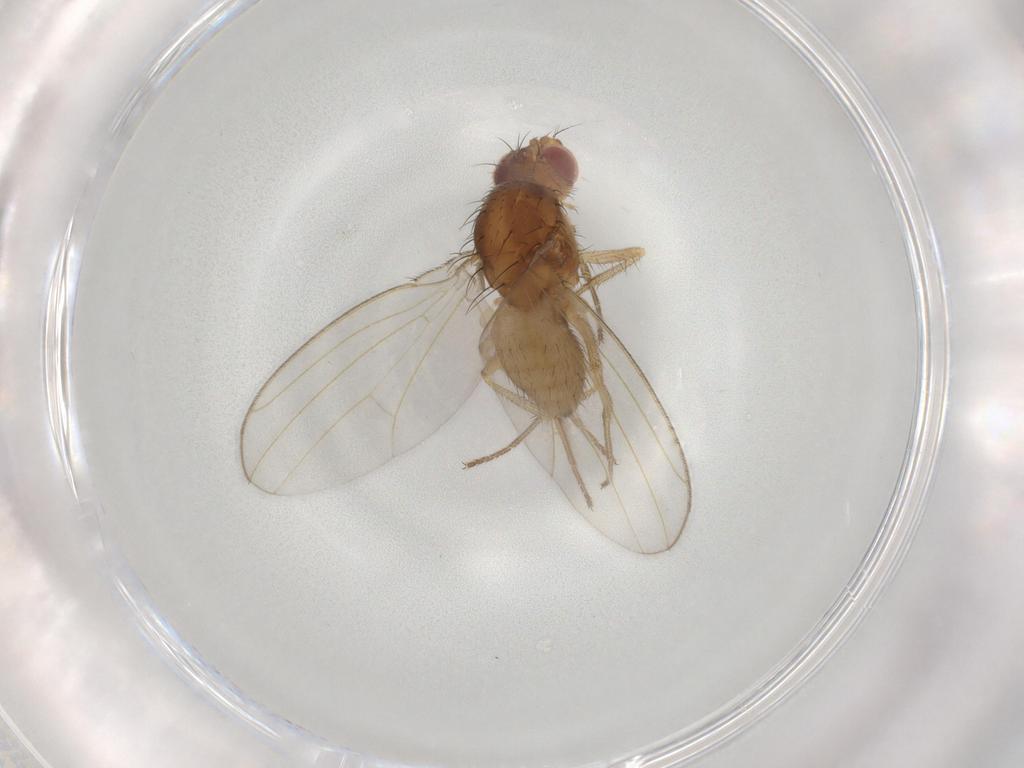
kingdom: Animalia
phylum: Arthropoda
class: Insecta
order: Diptera
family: Drosophilidae
